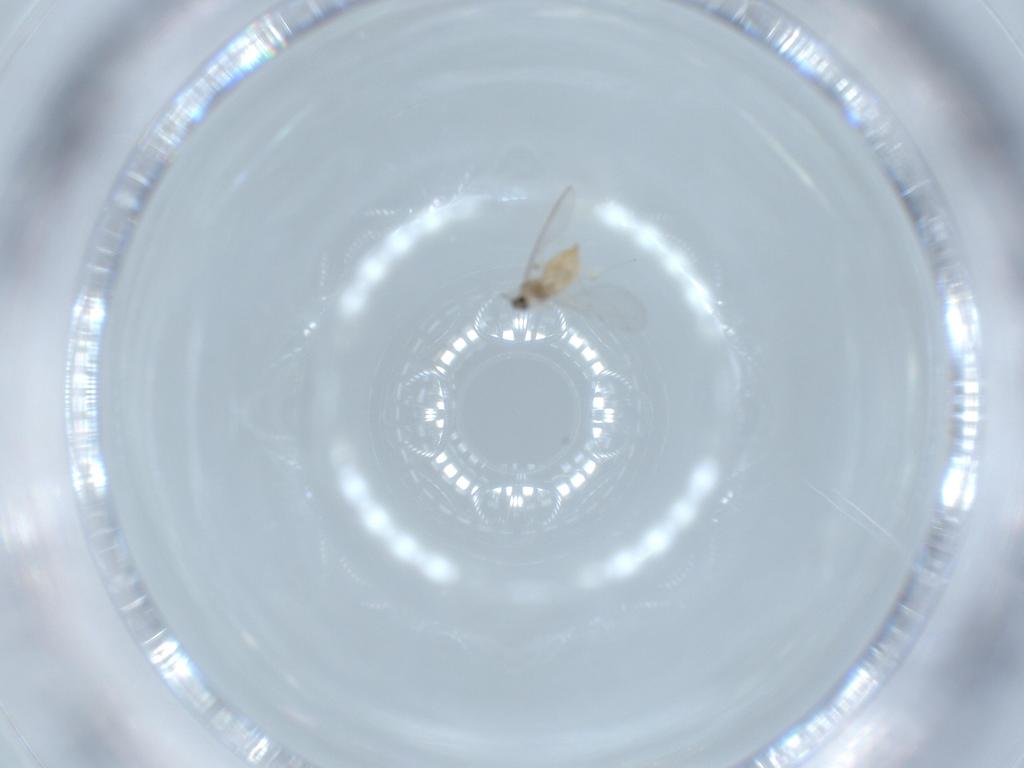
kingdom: Animalia
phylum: Arthropoda
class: Insecta
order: Diptera
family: Cecidomyiidae
